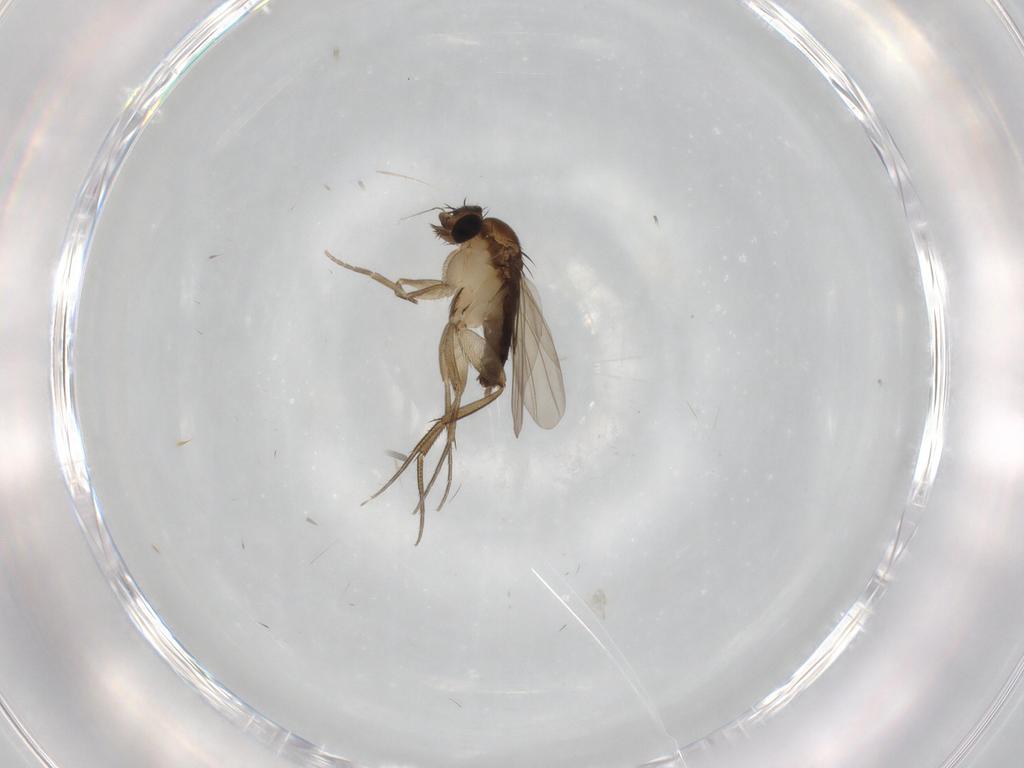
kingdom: Animalia
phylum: Arthropoda
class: Insecta
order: Diptera
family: Phoridae
